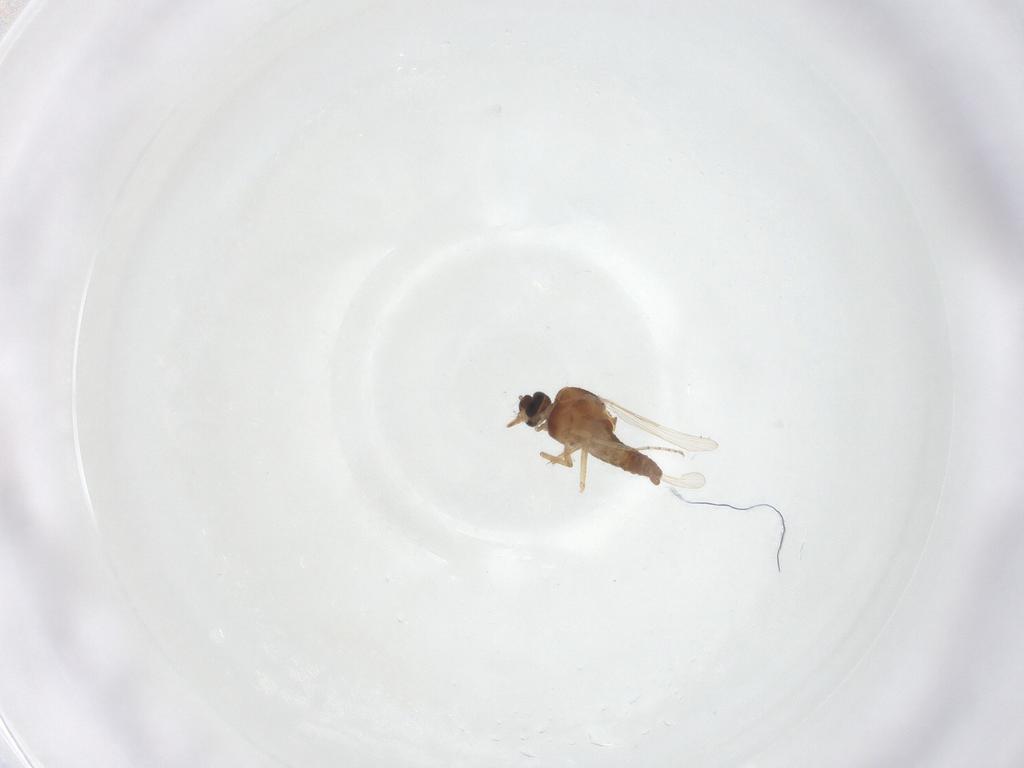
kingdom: Animalia
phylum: Arthropoda
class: Insecta
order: Diptera
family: Ceratopogonidae
